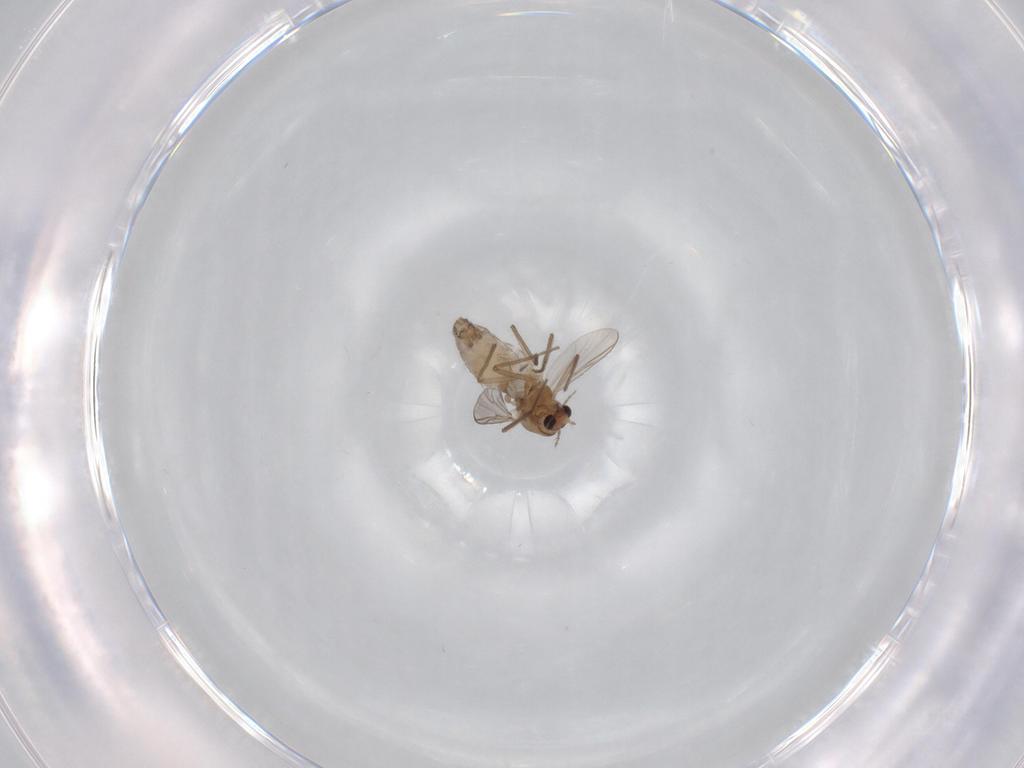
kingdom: Animalia
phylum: Arthropoda
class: Insecta
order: Diptera
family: Chironomidae
